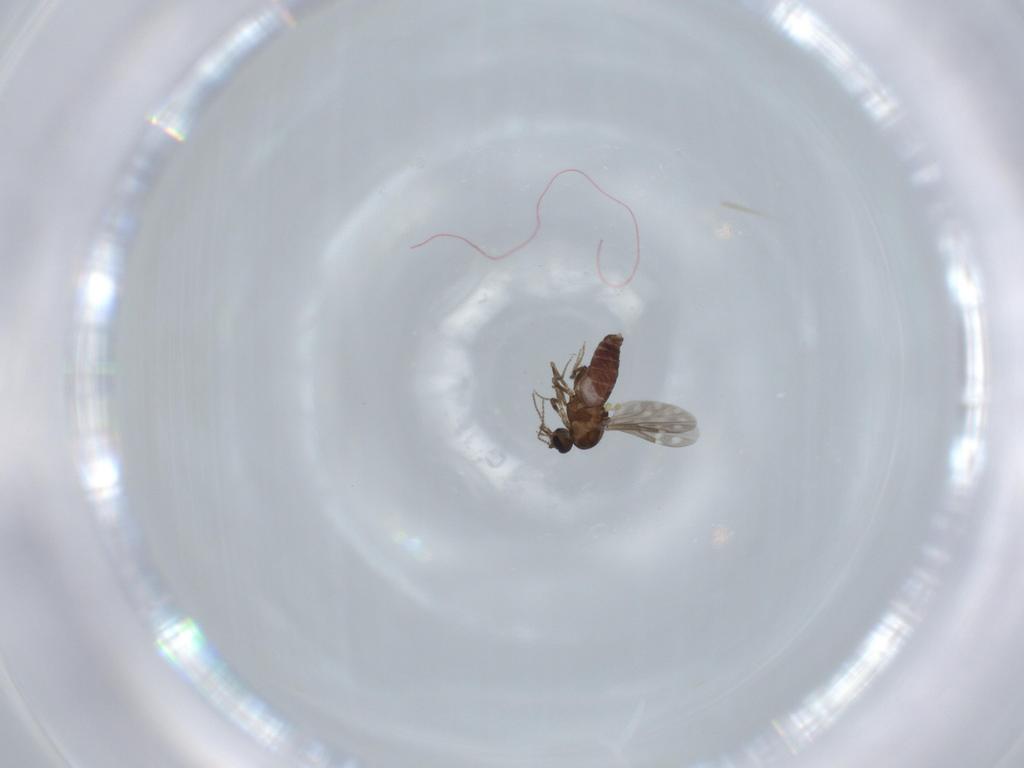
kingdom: Animalia
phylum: Arthropoda
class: Insecta
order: Diptera
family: Ceratopogonidae
